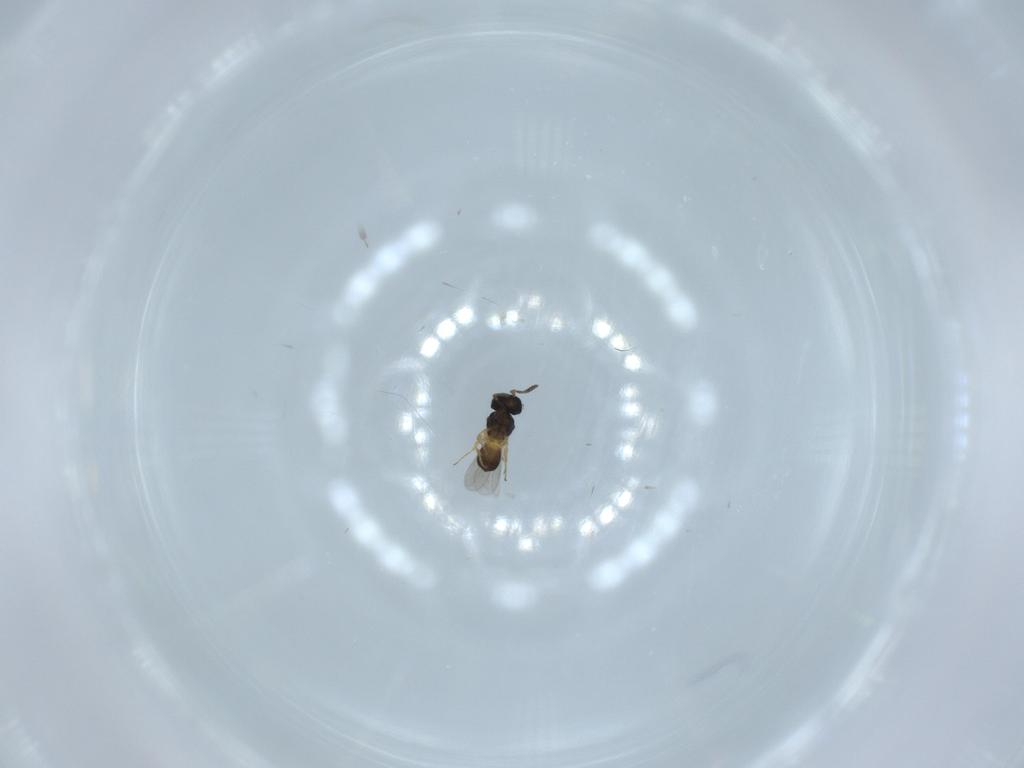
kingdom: Animalia
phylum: Arthropoda
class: Insecta
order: Hymenoptera
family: Scelionidae
